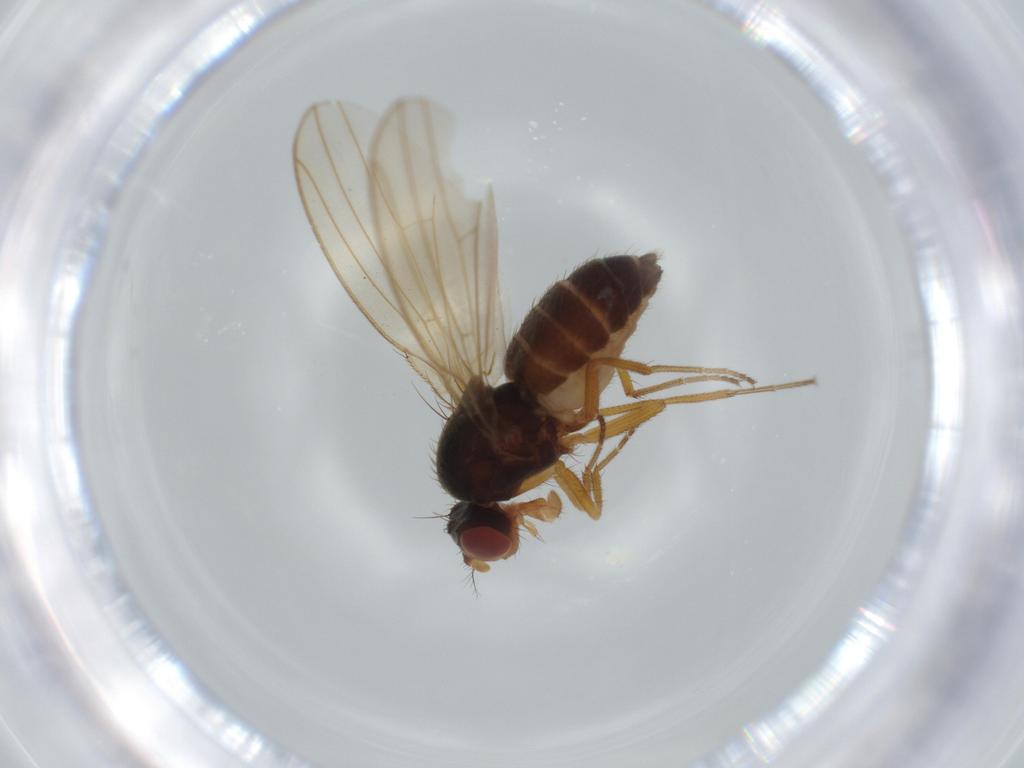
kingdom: Animalia
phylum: Arthropoda
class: Insecta
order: Diptera
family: Drosophilidae
